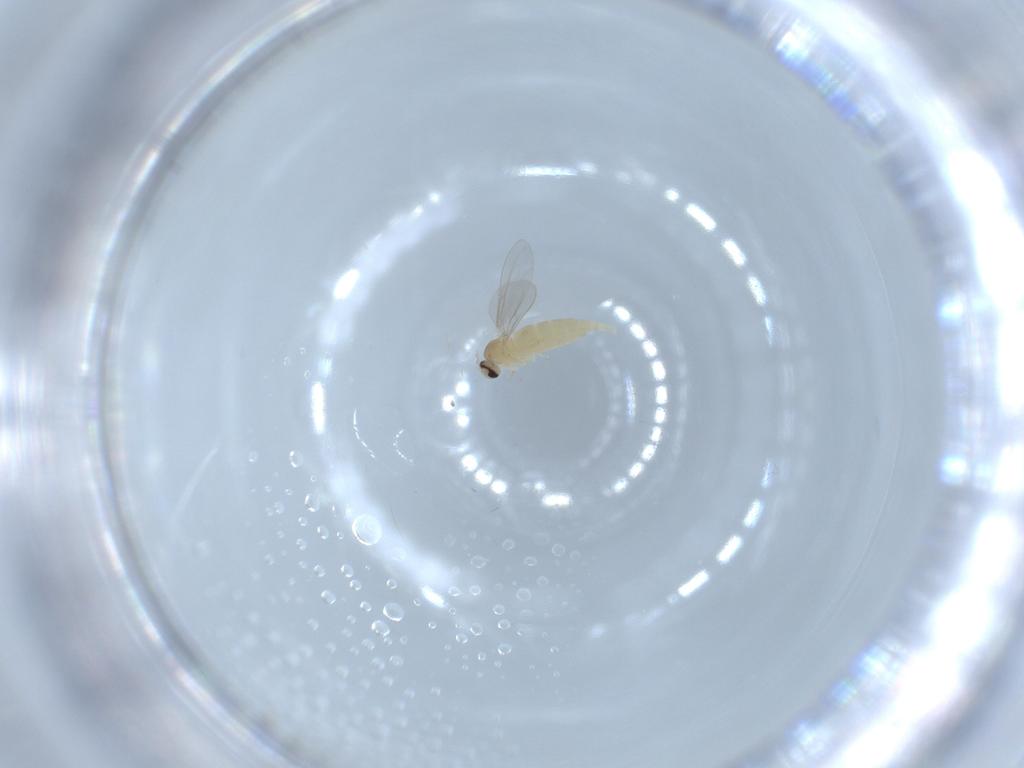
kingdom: Animalia
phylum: Arthropoda
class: Insecta
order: Diptera
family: Cecidomyiidae
